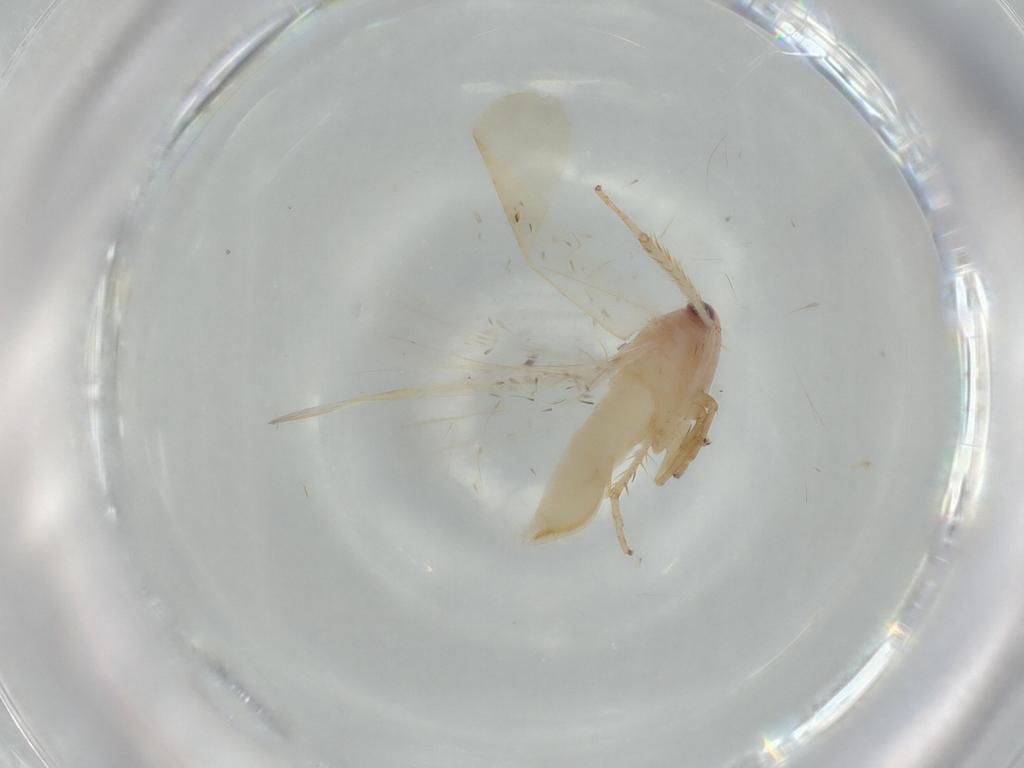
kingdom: Animalia
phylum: Arthropoda
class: Insecta
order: Hemiptera
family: Cicadellidae
